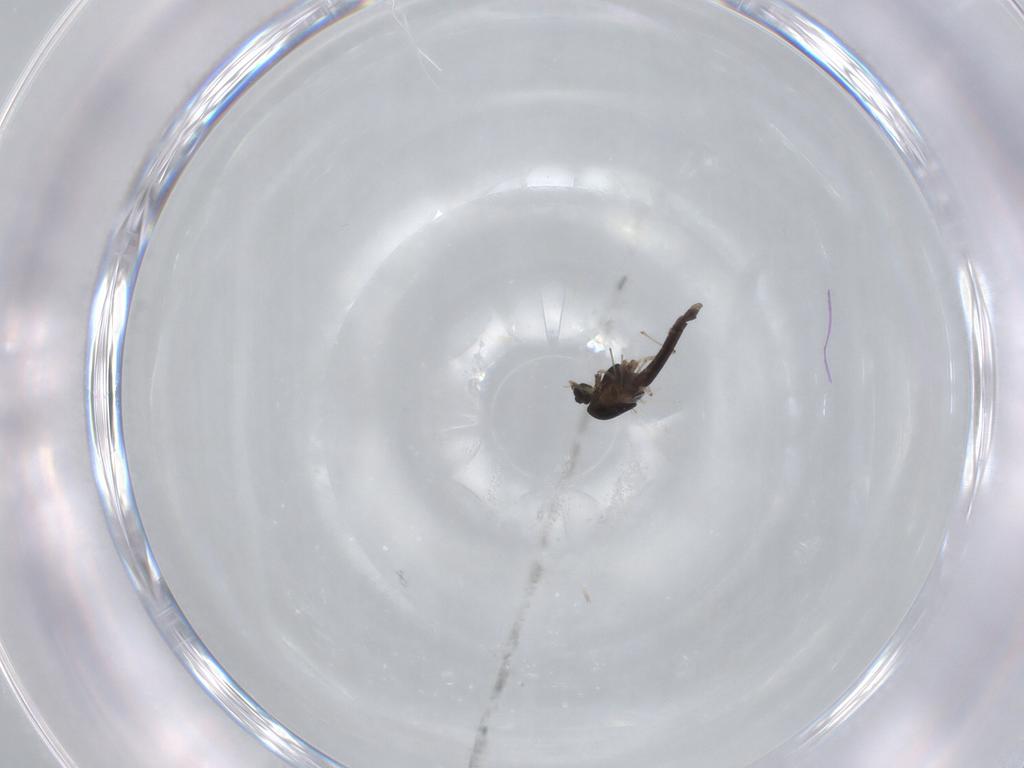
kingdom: Animalia
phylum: Arthropoda
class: Insecta
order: Diptera
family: Chironomidae
